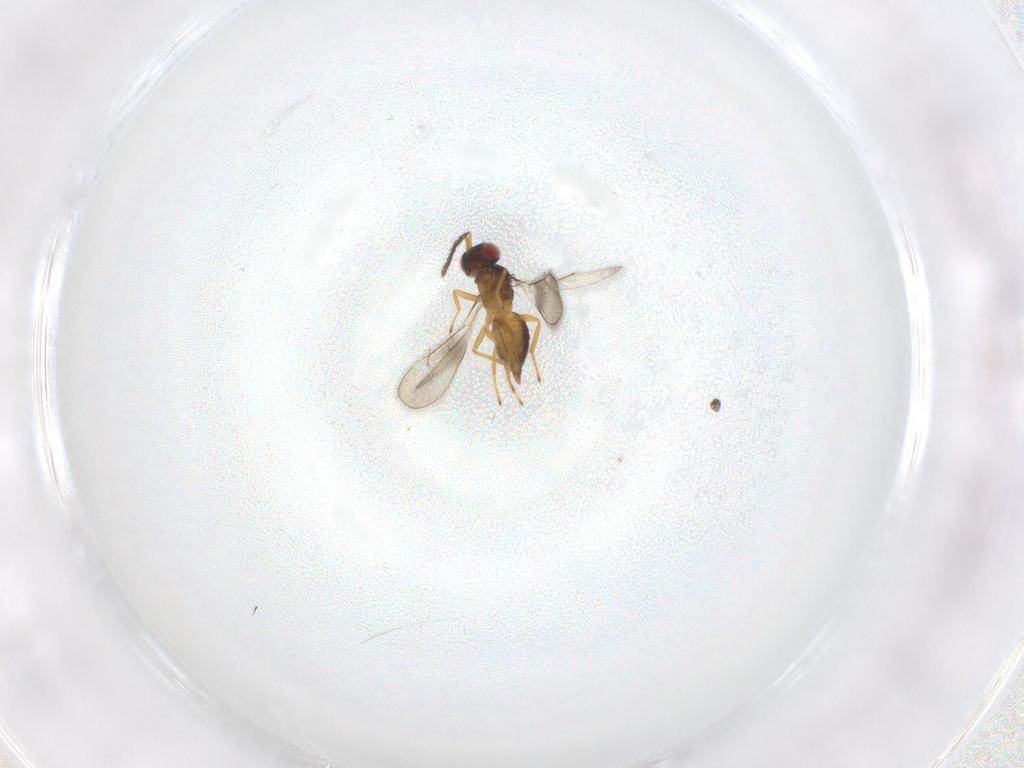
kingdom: Animalia
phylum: Arthropoda
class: Insecta
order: Hymenoptera
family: Eulophidae
